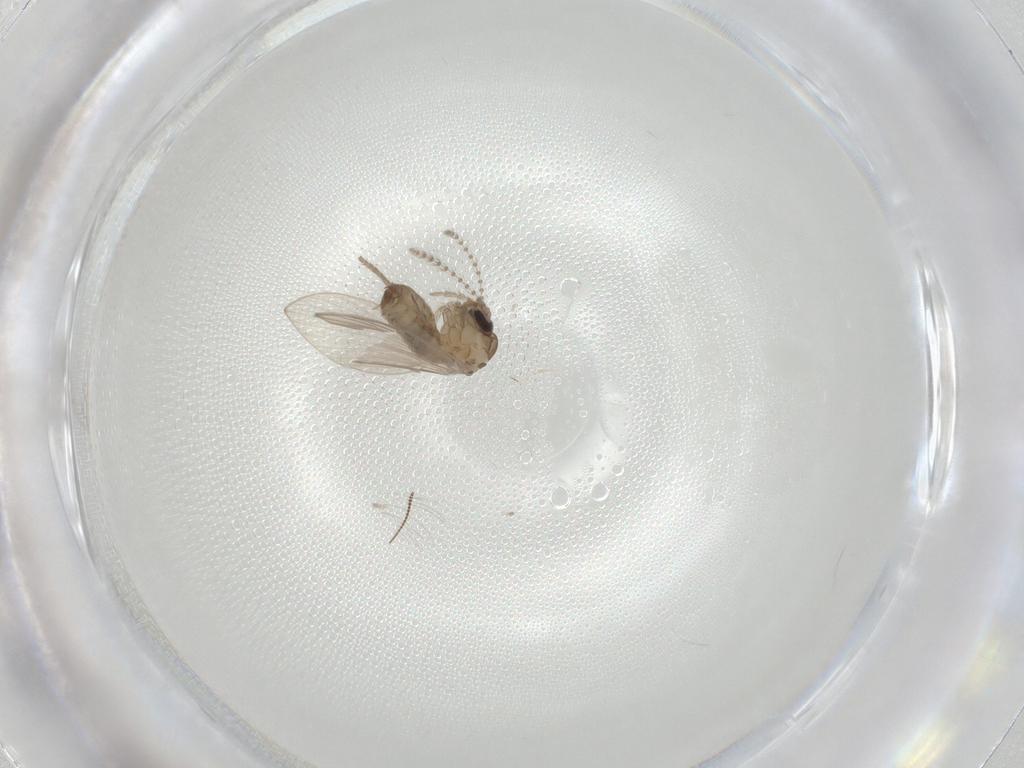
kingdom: Animalia
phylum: Arthropoda
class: Insecta
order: Diptera
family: Psychodidae
